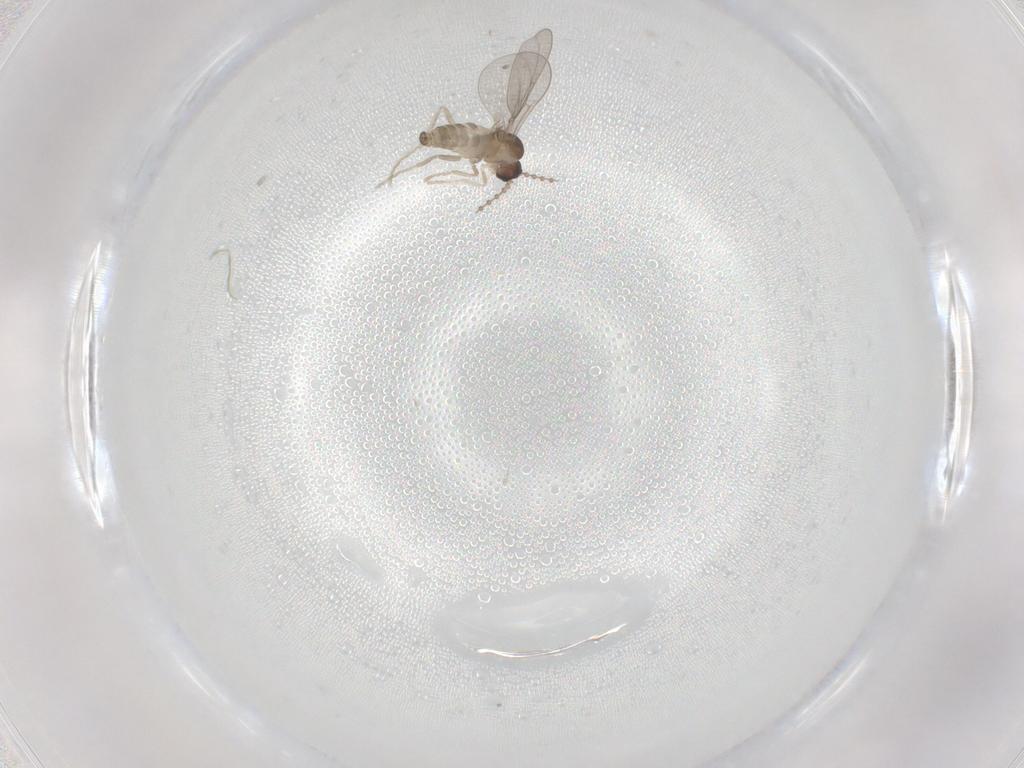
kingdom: Animalia
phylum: Arthropoda
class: Insecta
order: Diptera
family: Cecidomyiidae
